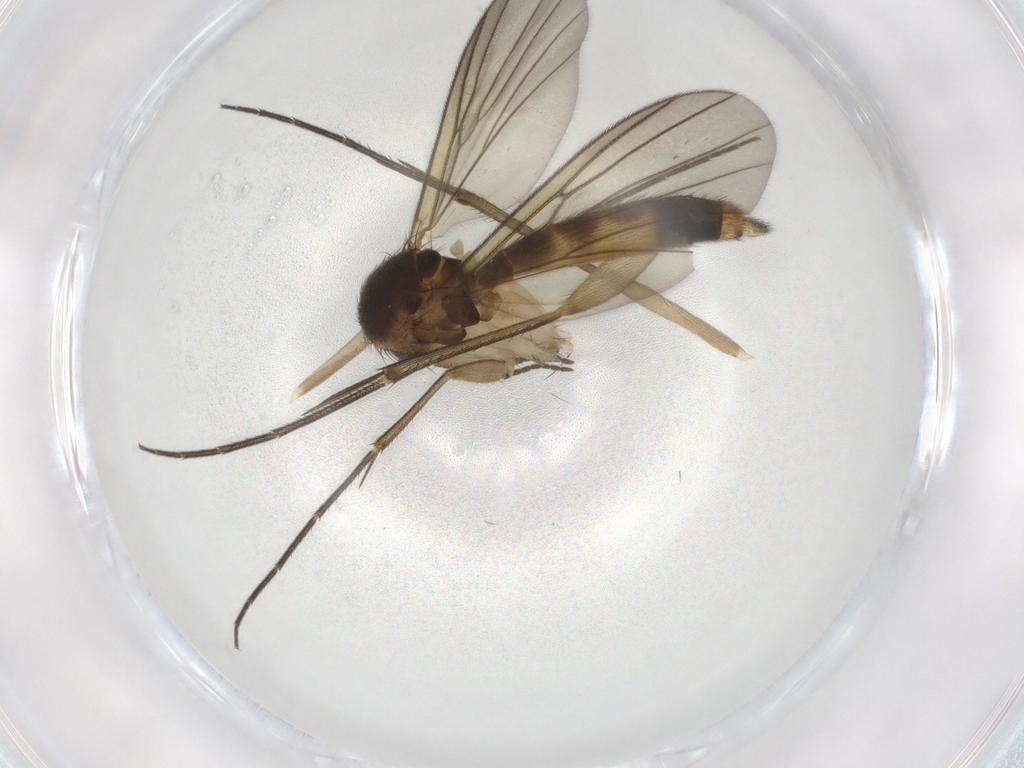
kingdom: Animalia
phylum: Arthropoda
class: Insecta
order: Diptera
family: Mycetophilidae
